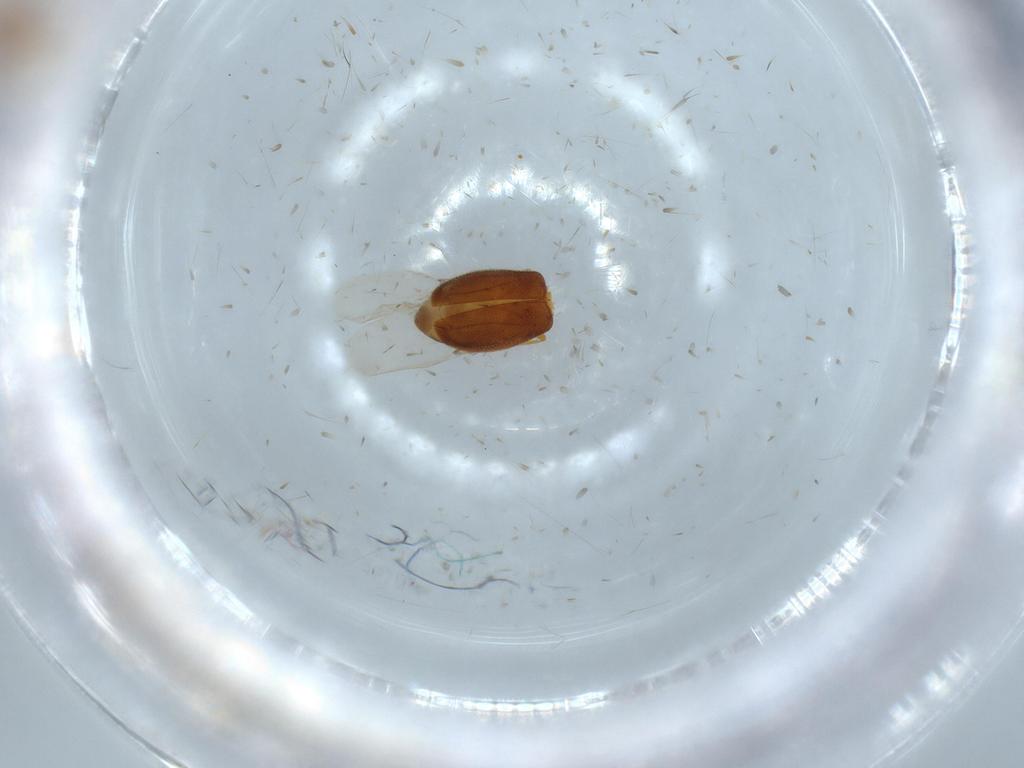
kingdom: Animalia
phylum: Arthropoda
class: Insecta
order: Coleoptera
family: Aderidae
